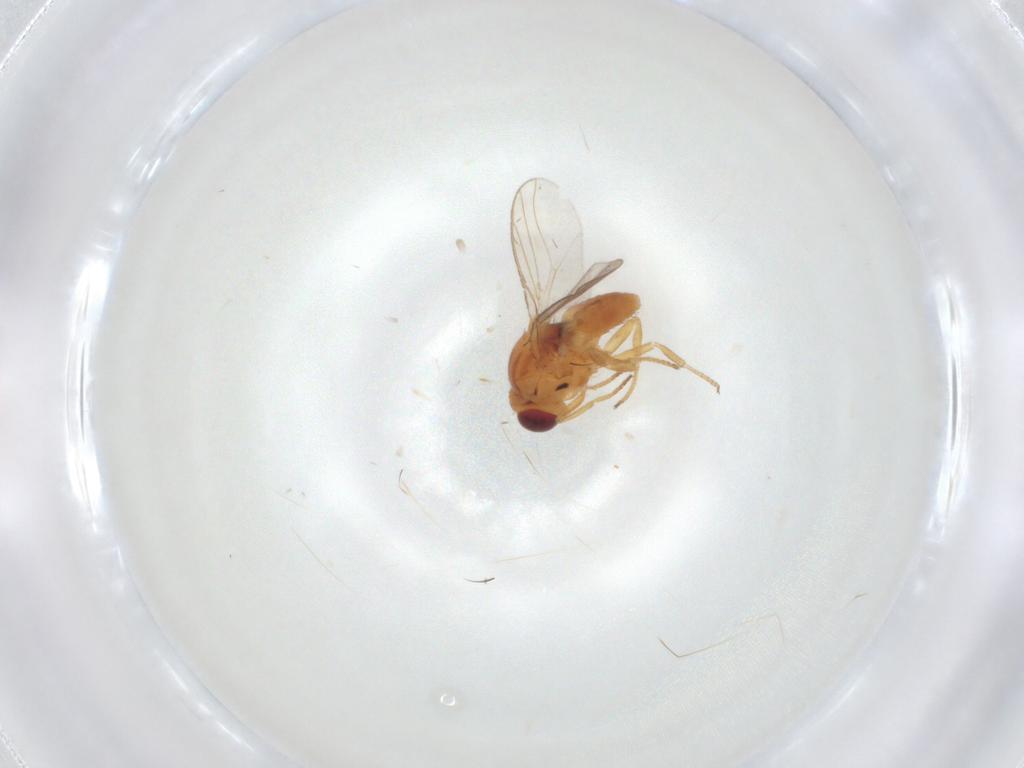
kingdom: Animalia
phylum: Arthropoda
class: Insecta
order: Diptera
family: Chloropidae
